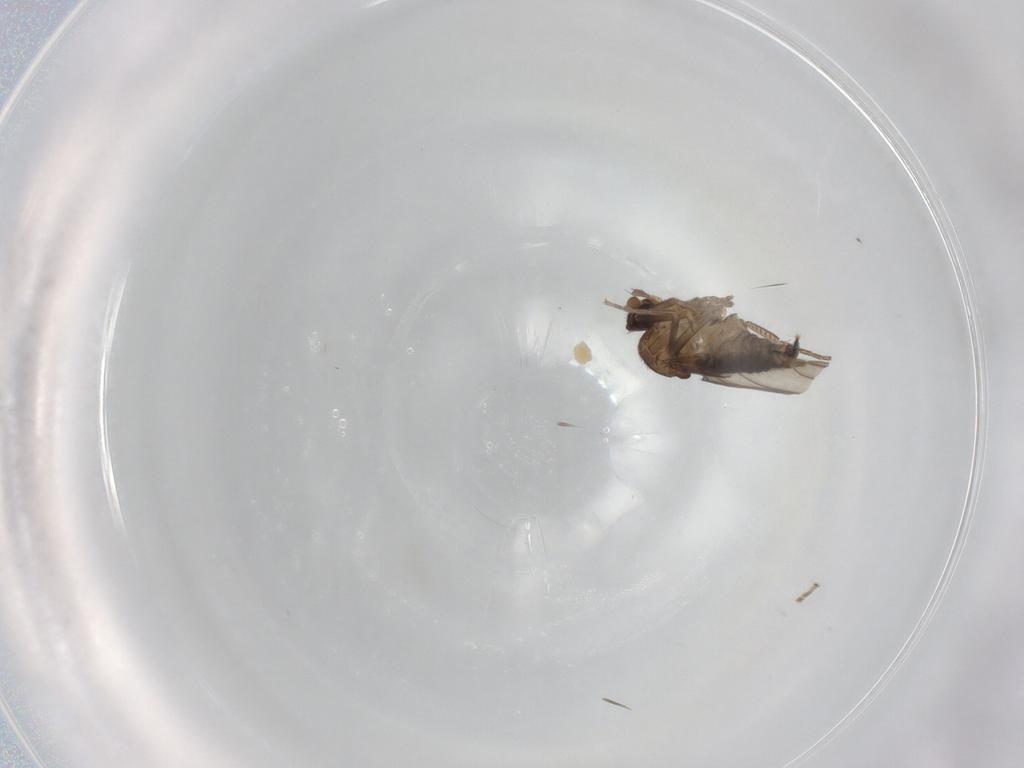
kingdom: Animalia
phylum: Arthropoda
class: Insecta
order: Diptera
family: Chironomidae
